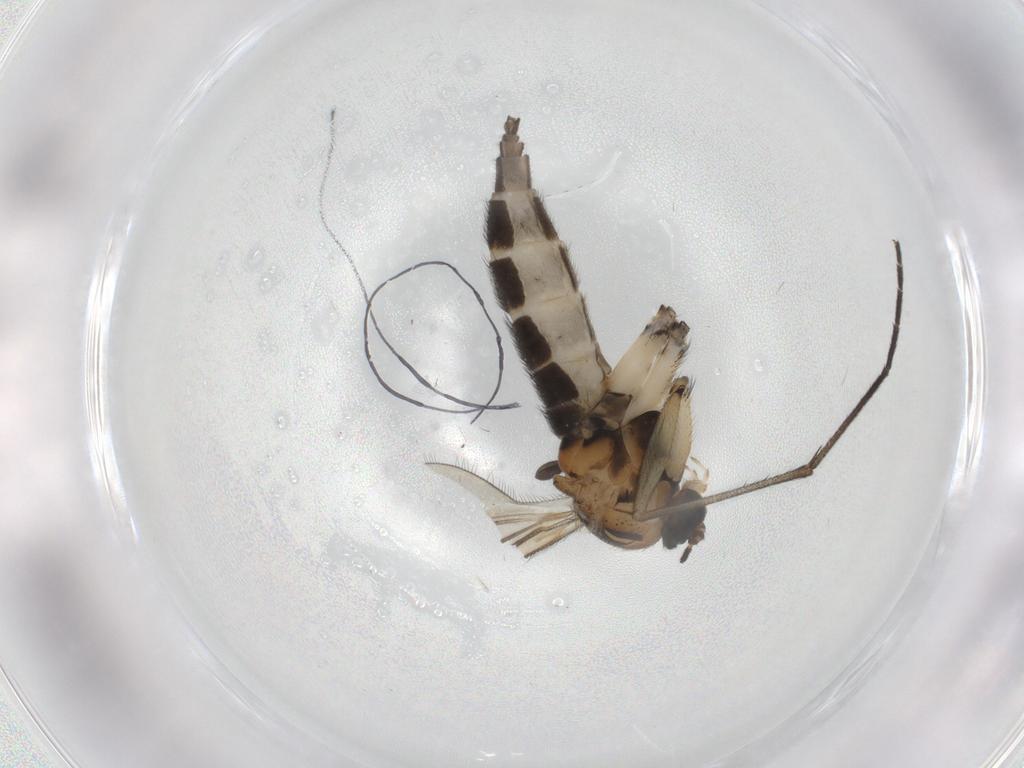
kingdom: Animalia
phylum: Arthropoda
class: Insecta
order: Diptera
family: Sciaridae
